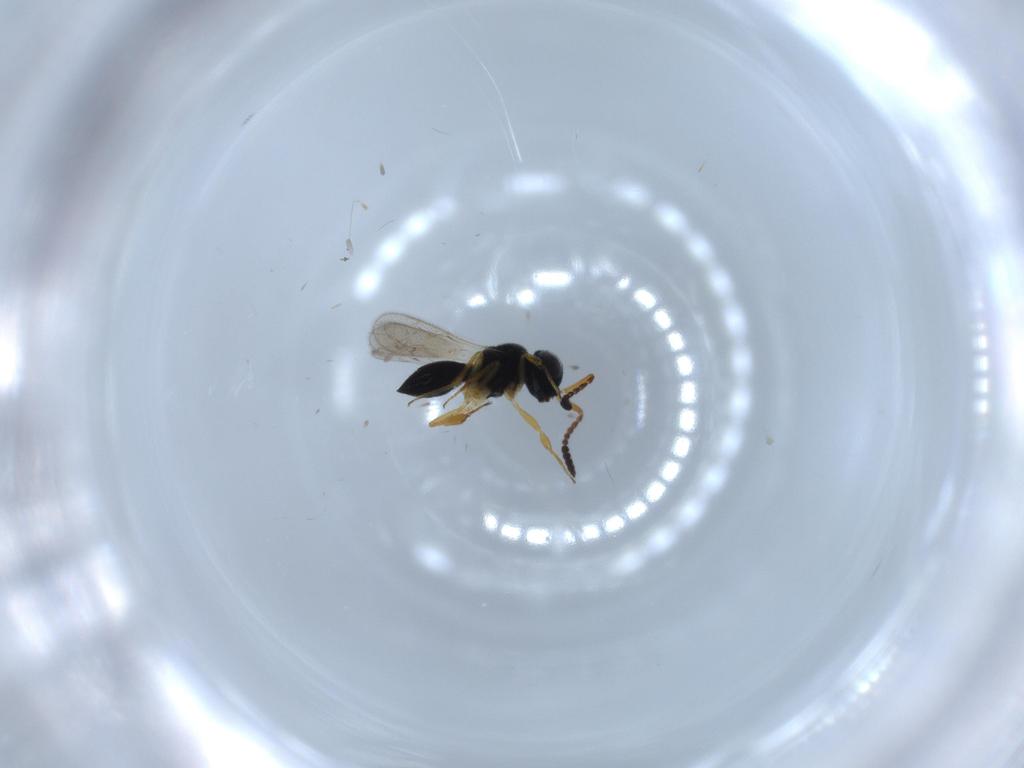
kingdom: Animalia
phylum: Arthropoda
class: Insecta
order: Hymenoptera
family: Scelionidae
